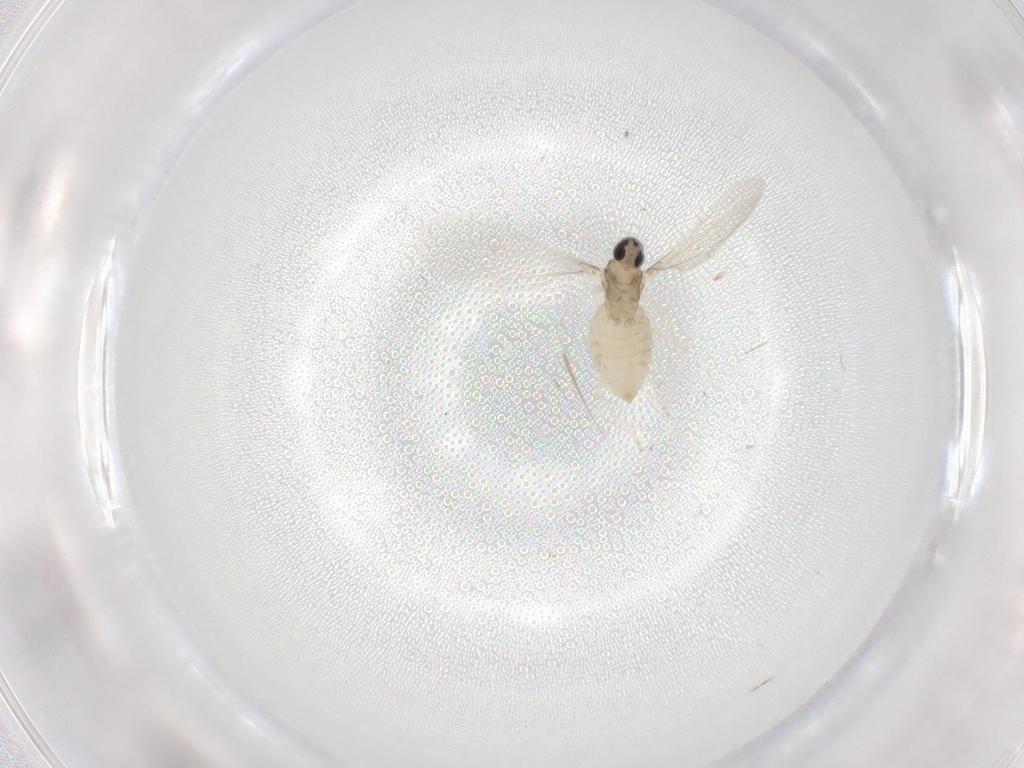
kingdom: Animalia
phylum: Arthropoda
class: Insecta
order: Diptera
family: Cecidomyiidae
